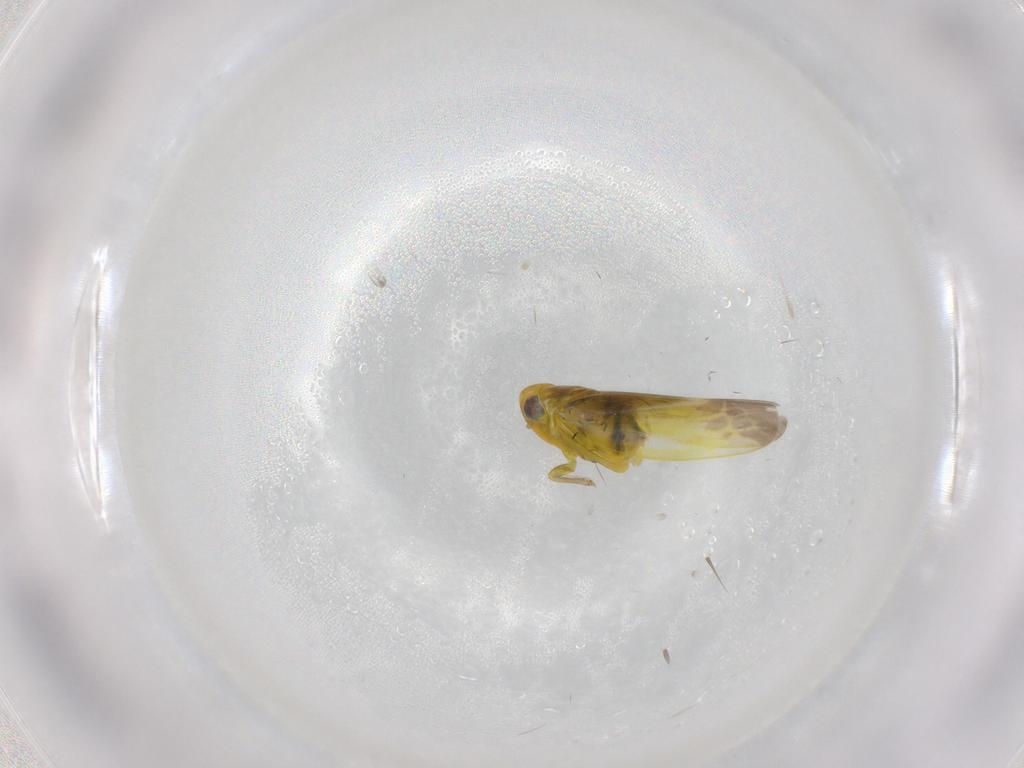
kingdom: Animalia
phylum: Arthropoda
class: Insecta
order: Hemiptera
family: Cicadellidae
